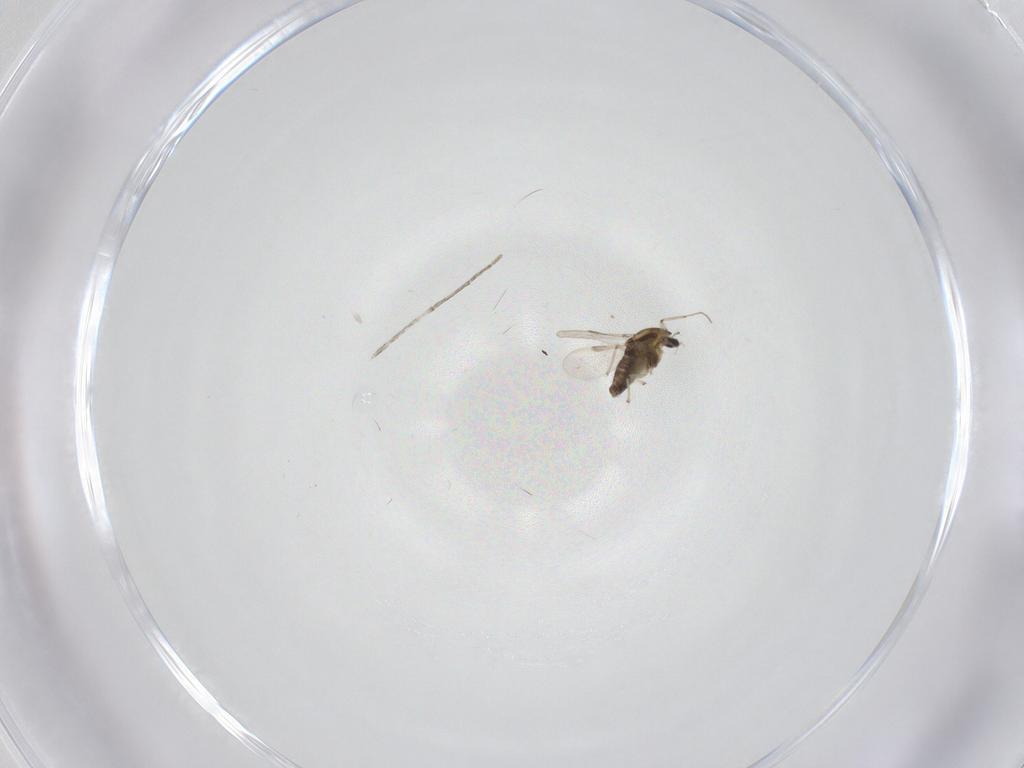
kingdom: Animalia
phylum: Arthropoda
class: Insecta
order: Diptera
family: Chironomidae
